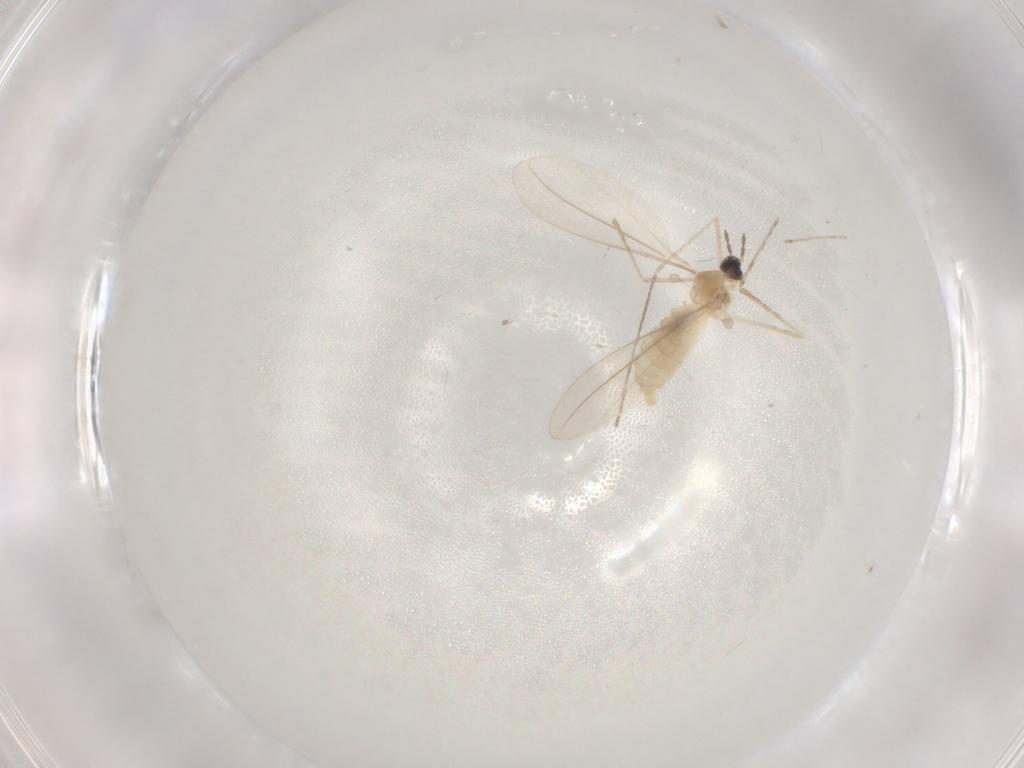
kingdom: Animalia
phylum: Arthropoda
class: Insecta
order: Diptera
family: Cecidomyiidae
